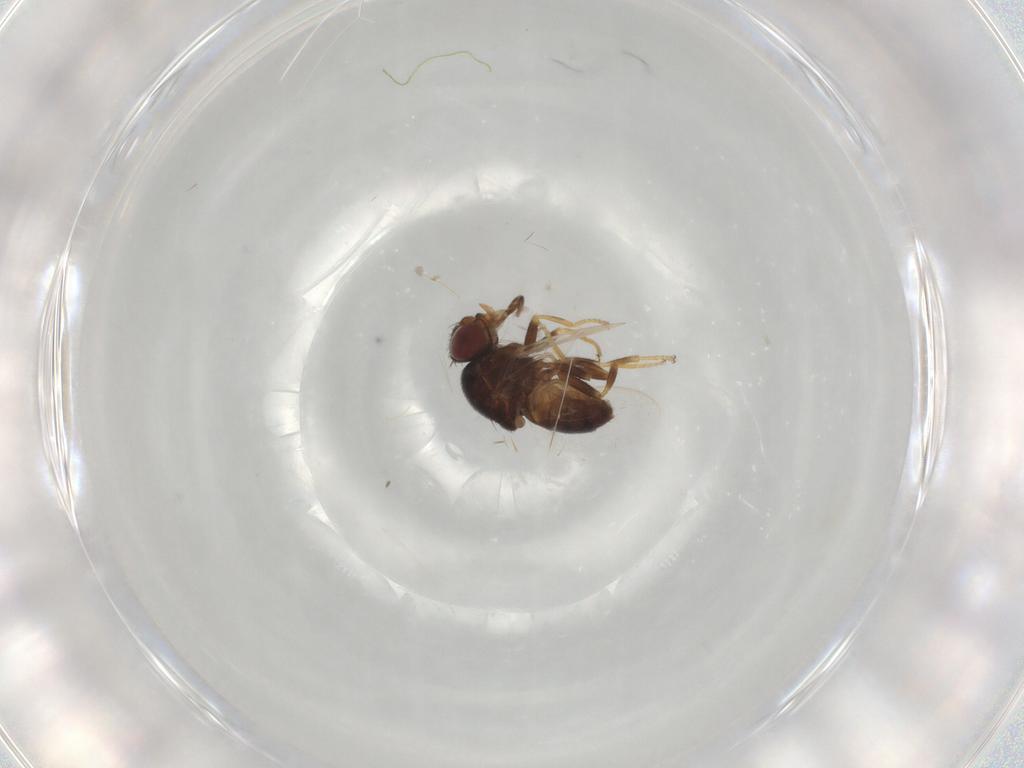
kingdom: Animalia
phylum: Arthropoda
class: Insecta
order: Diptera
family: Chloropidae
